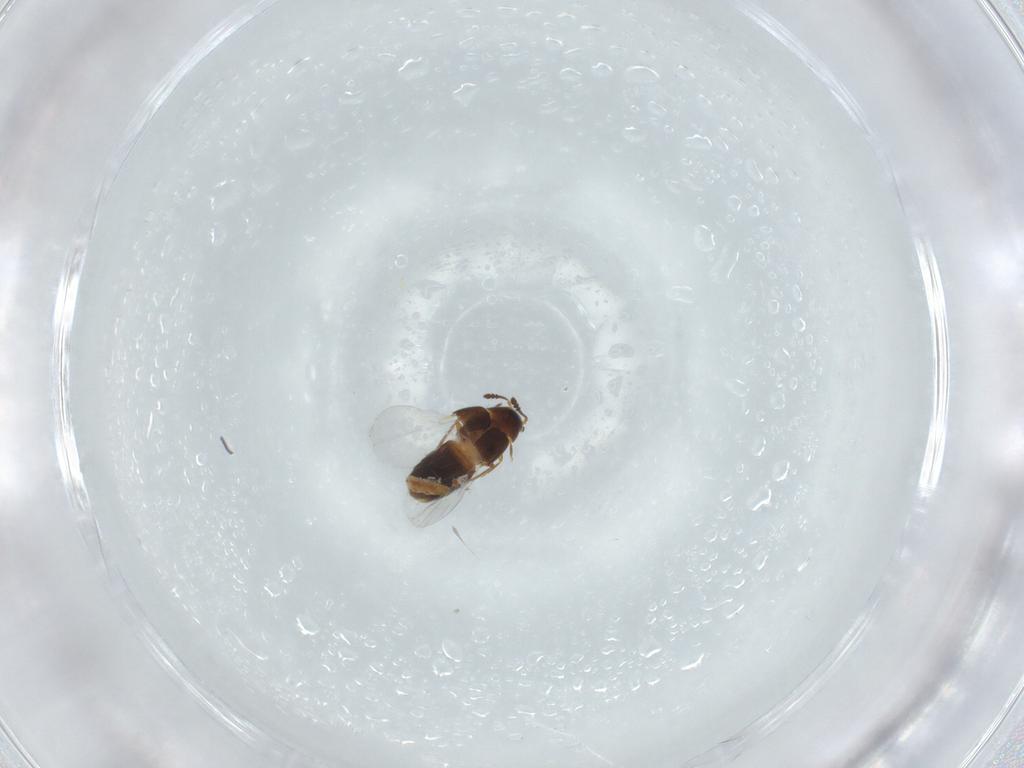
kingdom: Animalia
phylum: Arthropoda
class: Insecta
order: Coleoptera
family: Staphylinidae
